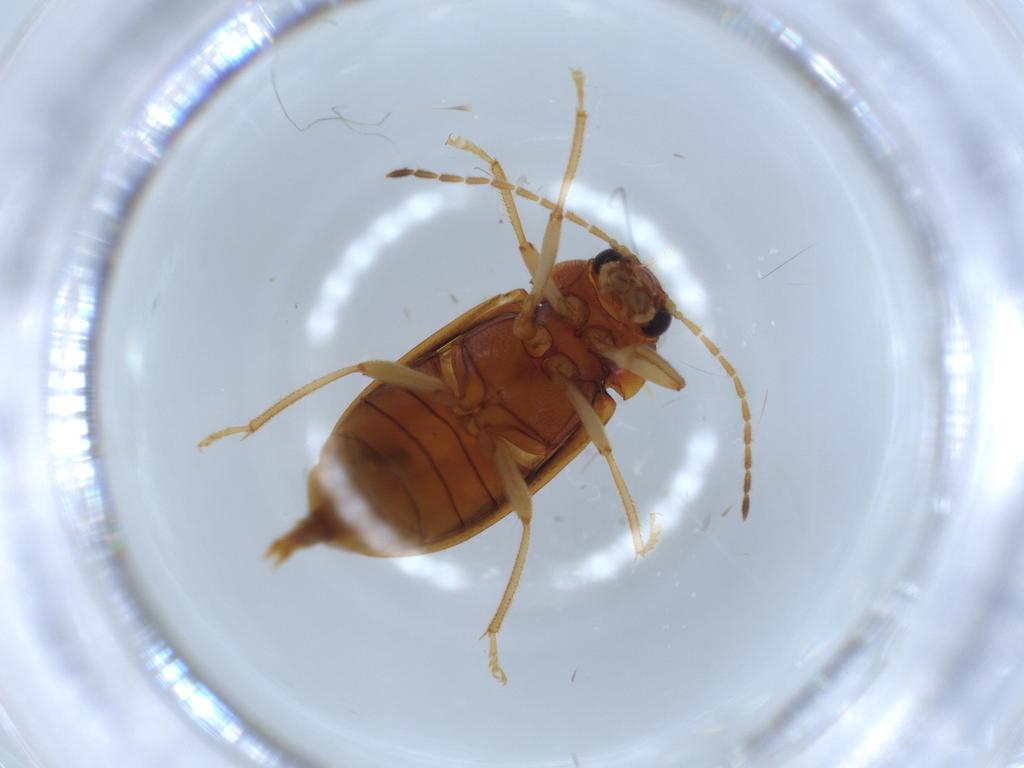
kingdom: Animalia
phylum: Arthropoda
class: Insecta
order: Coleoptera
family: Ptilodactylidae
